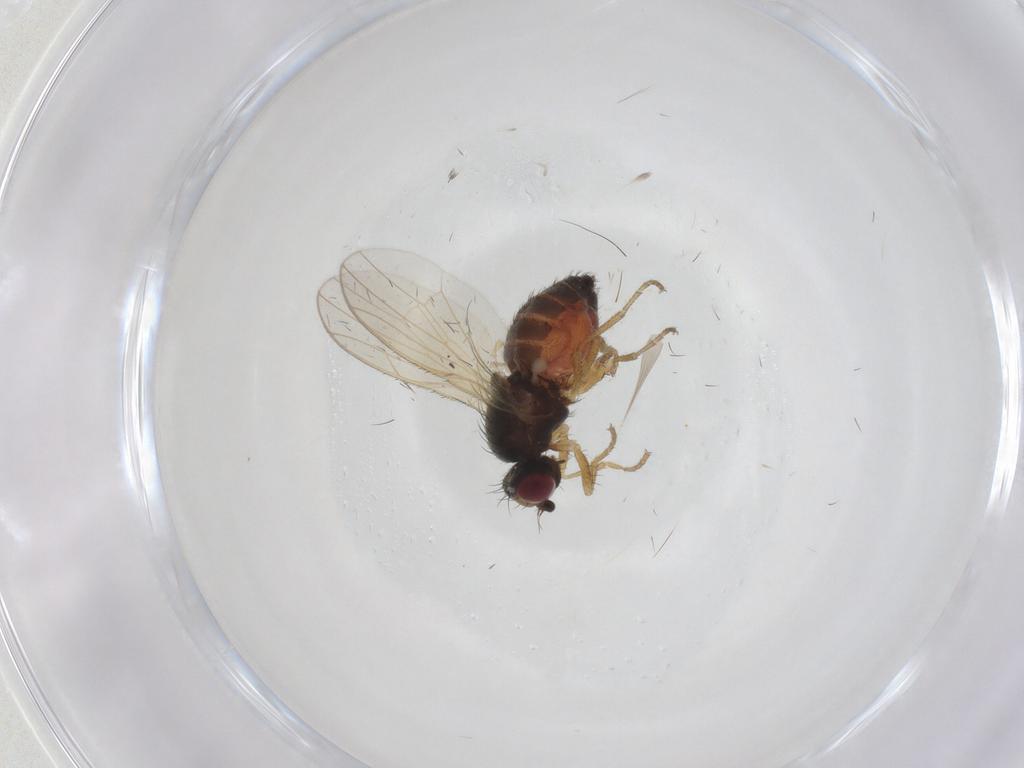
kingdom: Animalia
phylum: Arthropoda
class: Insecta
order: Diptera
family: Heleomyzidae
